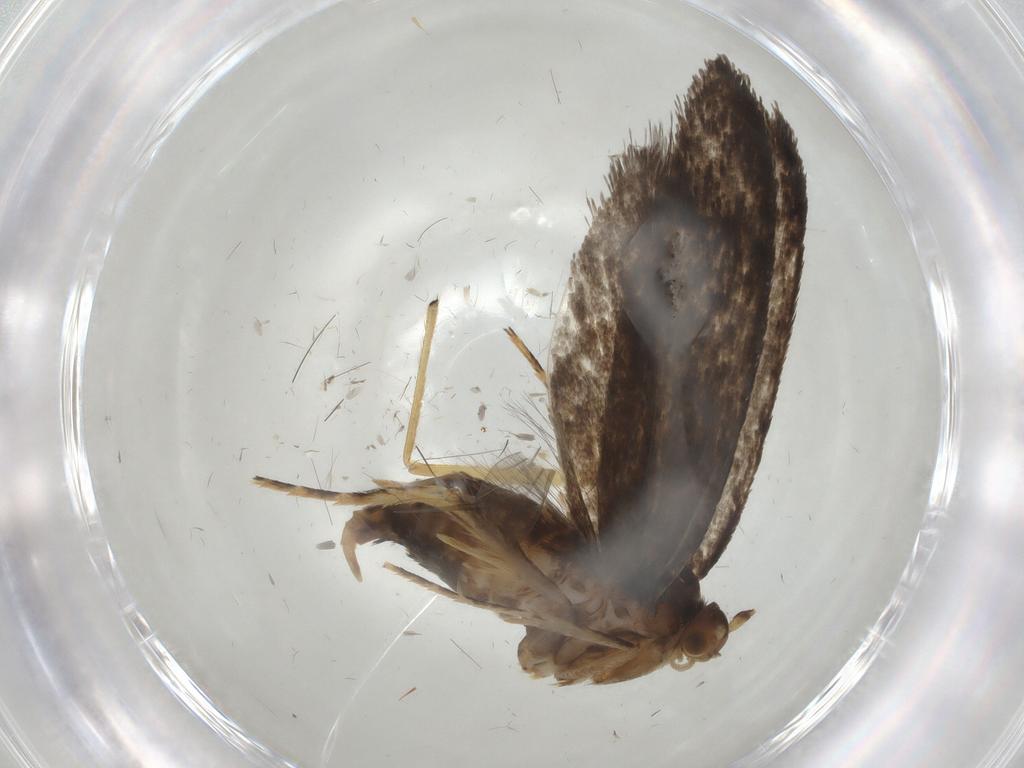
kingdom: Animalia
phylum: Arthropoda
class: Insecta
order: Lepidoptera
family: Tineidae
